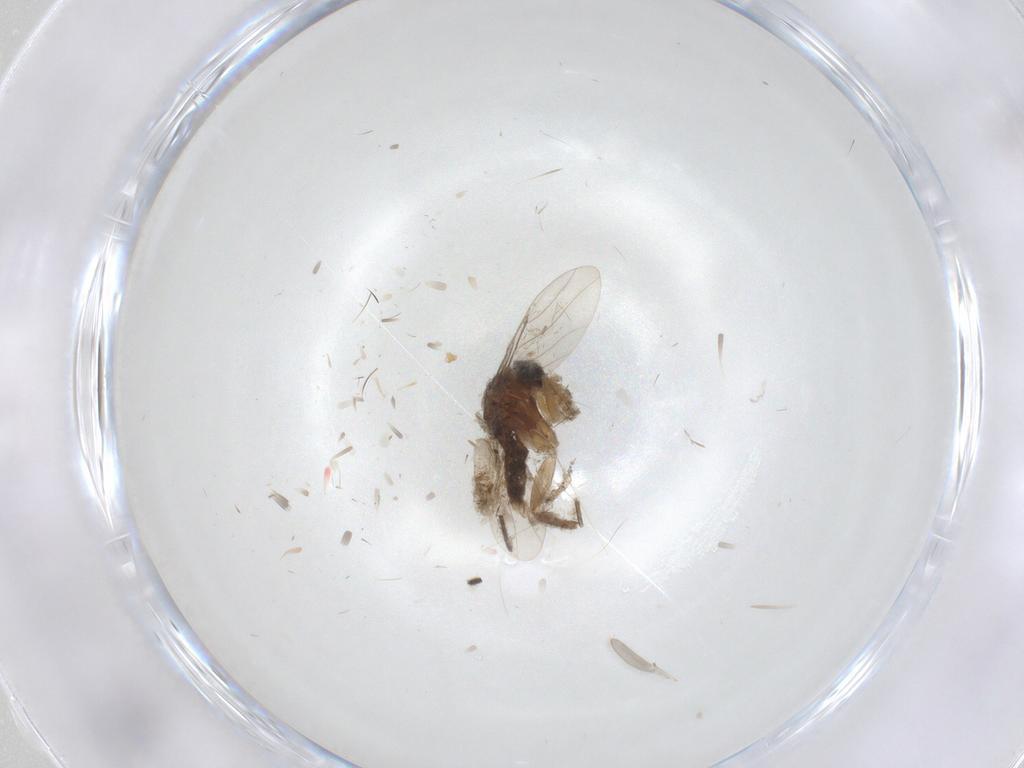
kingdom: Animalia
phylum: Arthropoda
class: Insecta
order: Diptera
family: Phoridae
